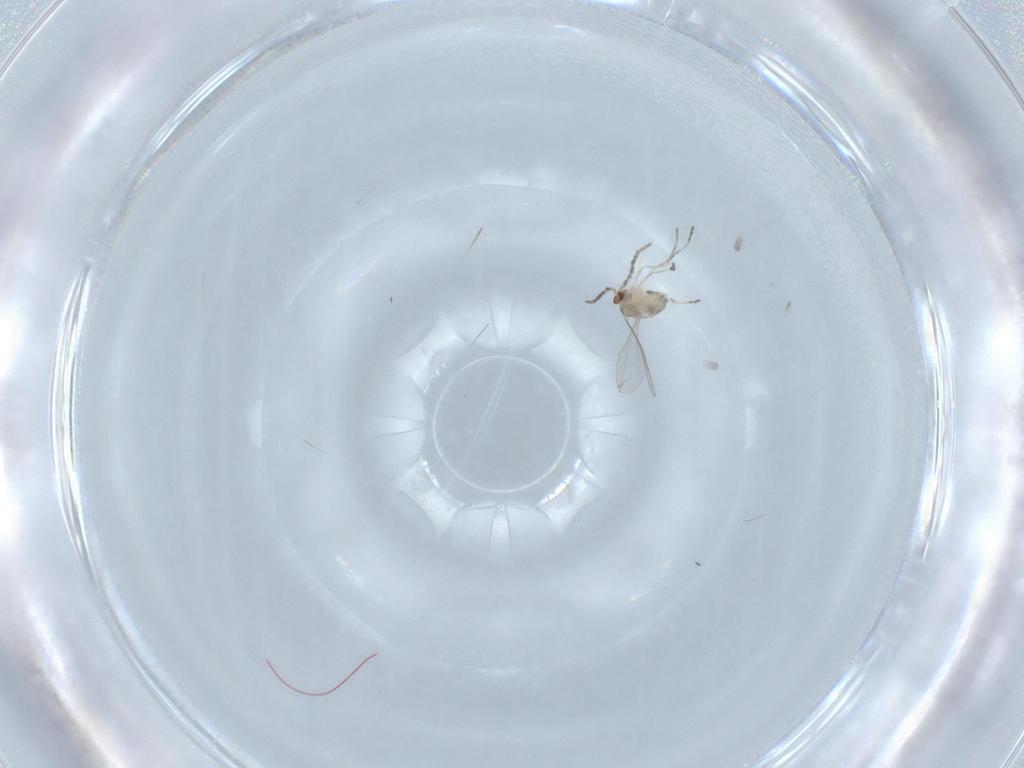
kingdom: Animalia
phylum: Arthropoda
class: Insecta
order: Diptera
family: Cecidomyiidae
